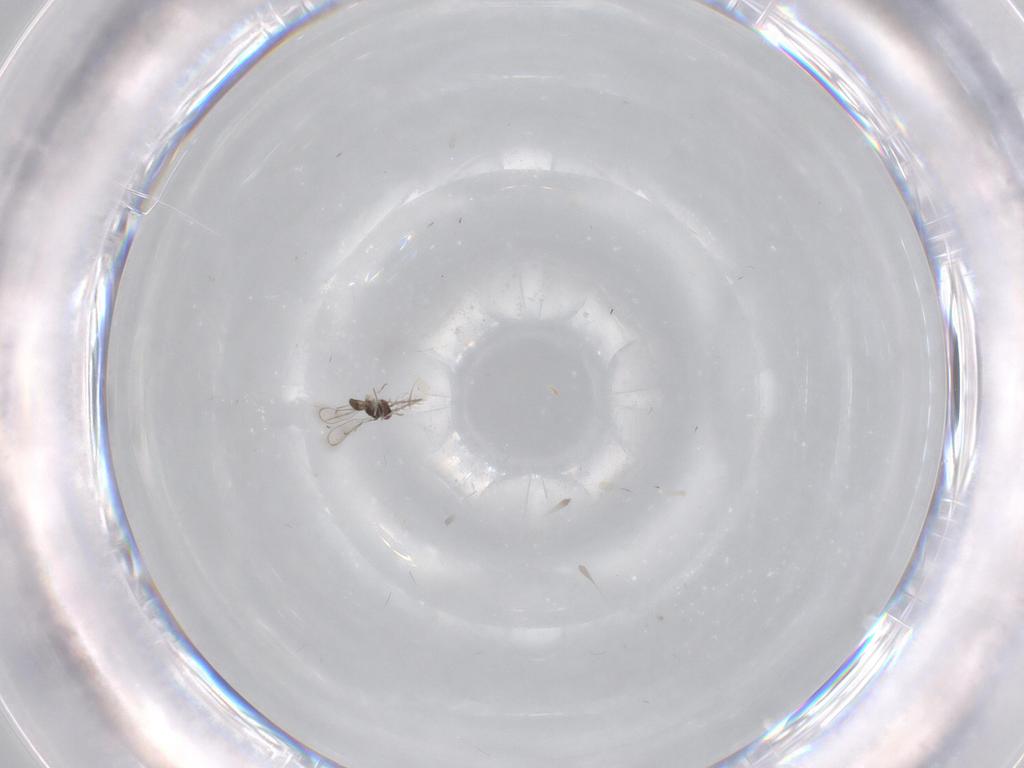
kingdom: Animalia
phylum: Arthropoda
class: Insecta
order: Hymenoptera
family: Eulophidae
